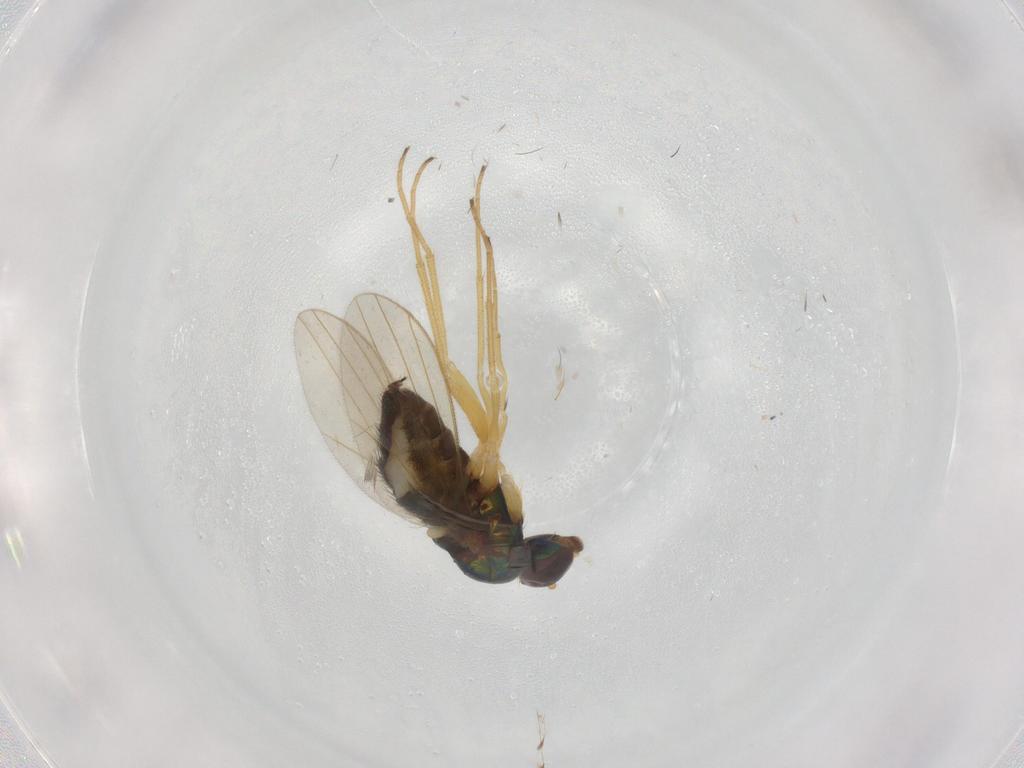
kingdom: Animalia
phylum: Arthropoda
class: Insecta
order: Diptera
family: Dolichopodidae
